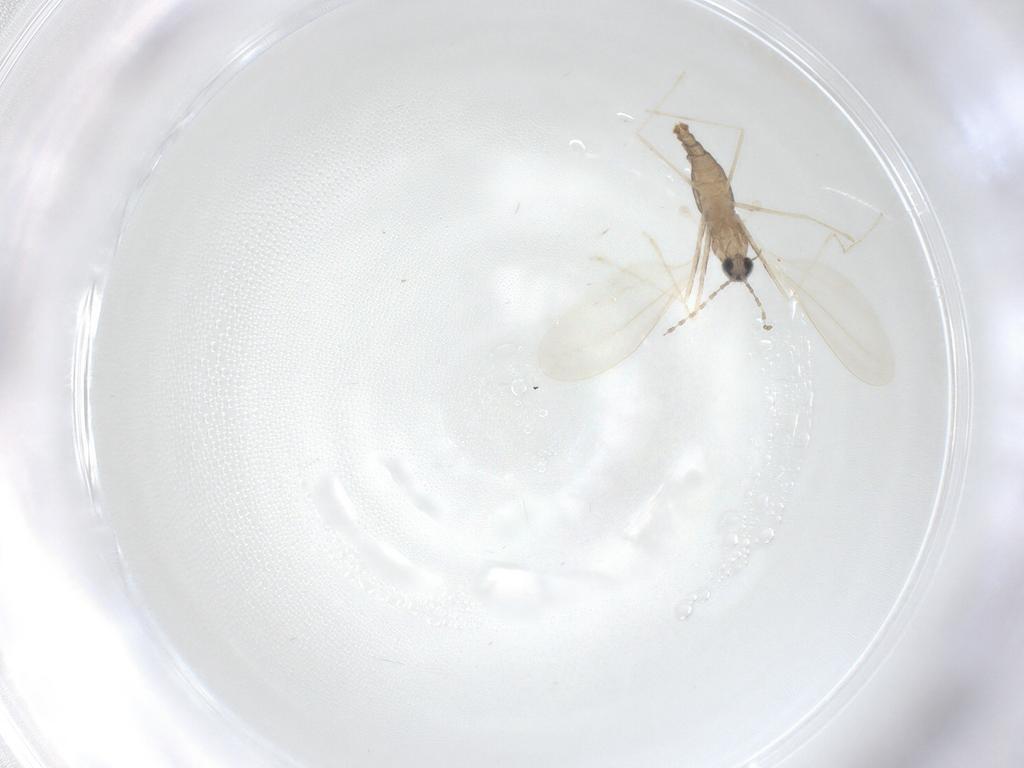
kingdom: Animalia
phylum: Arthropoda
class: Insecta
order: Diptera
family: Cecidomyiidae
